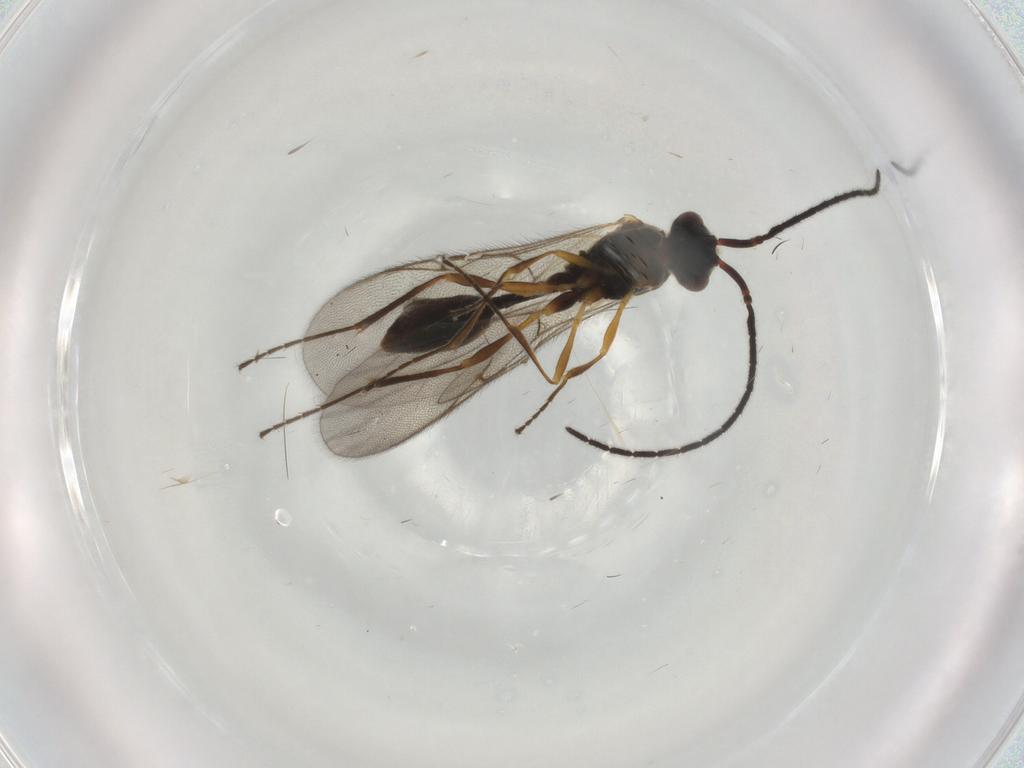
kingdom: Animalia
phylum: Arthropoda
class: Insecta
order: Hymenoptera
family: Diapriidae
